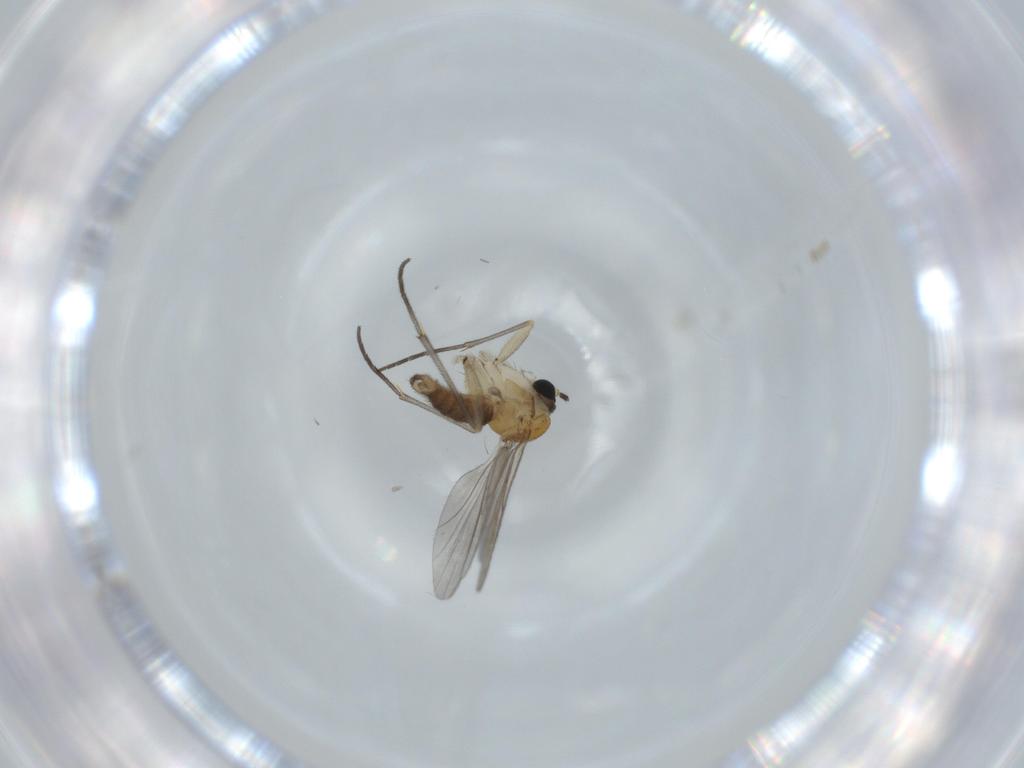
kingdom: Animalia
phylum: Arthropoda
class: Insecta
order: Diptera
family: Sciaridae
